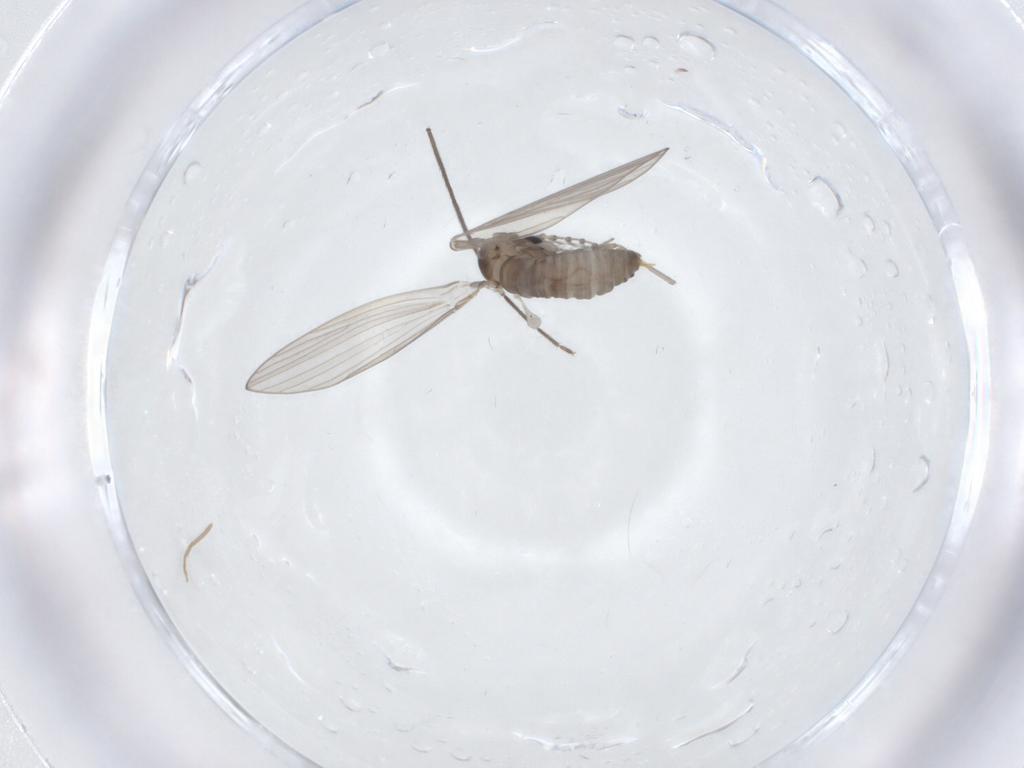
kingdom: Animalia
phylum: Arthropoda
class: Insecta
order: Diptera
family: Psychodidae
